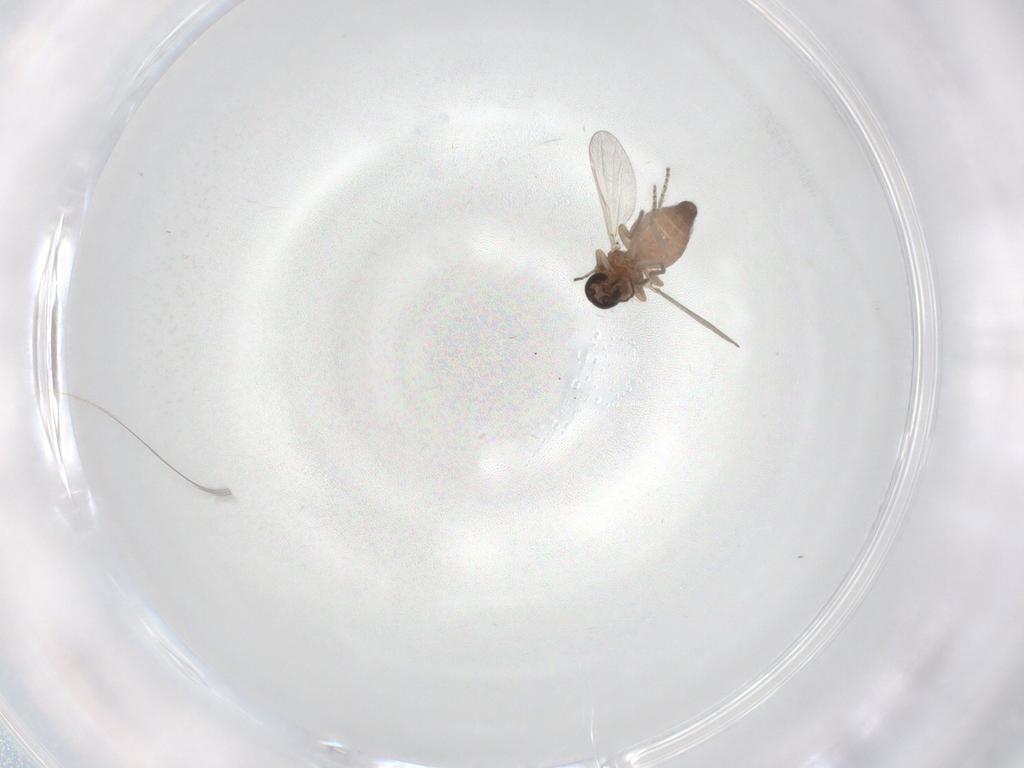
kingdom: Animalia
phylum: Arthropoda
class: Insecta
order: Diptera
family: Ceratopogonidae
